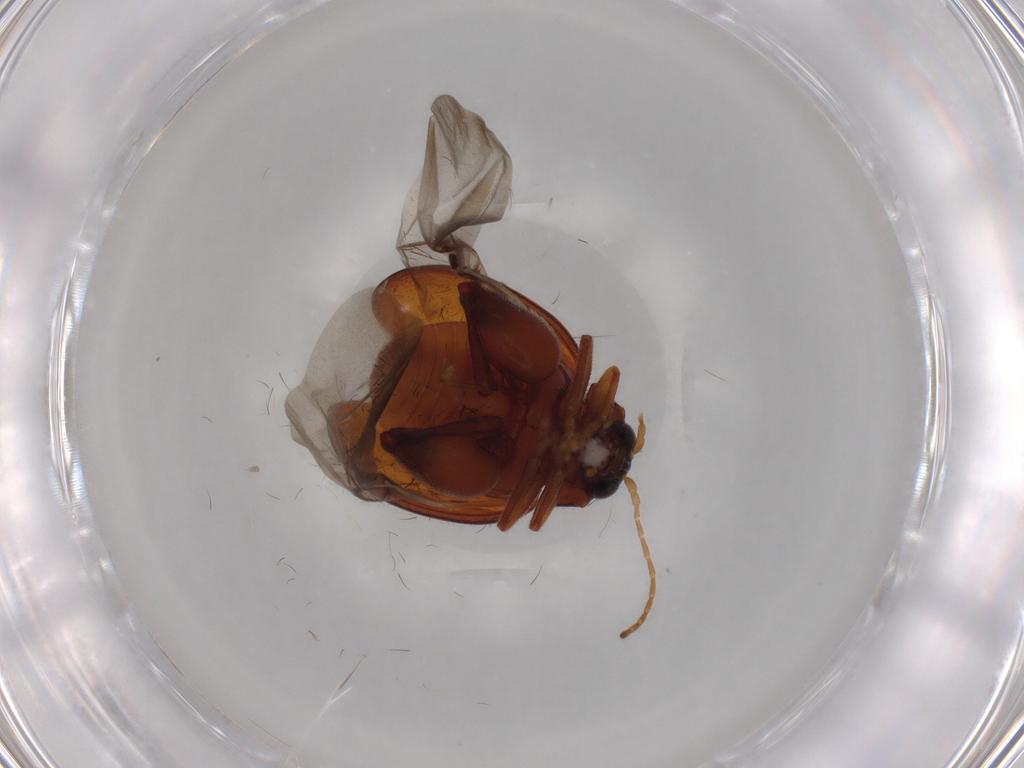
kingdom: Animalia
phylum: Arthropoda
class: Insecta
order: Coleoptera
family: Chrysomelidae
